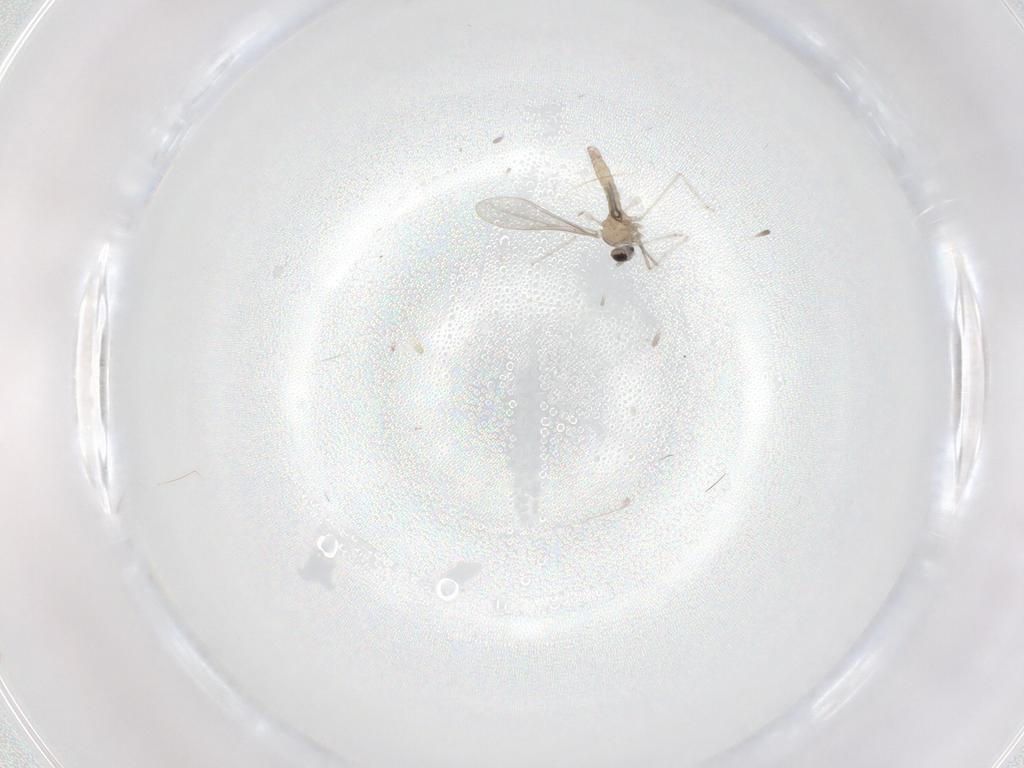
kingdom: Animalia
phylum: Arthropoda
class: Insecta
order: Diptera
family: Cecidomyiidae
